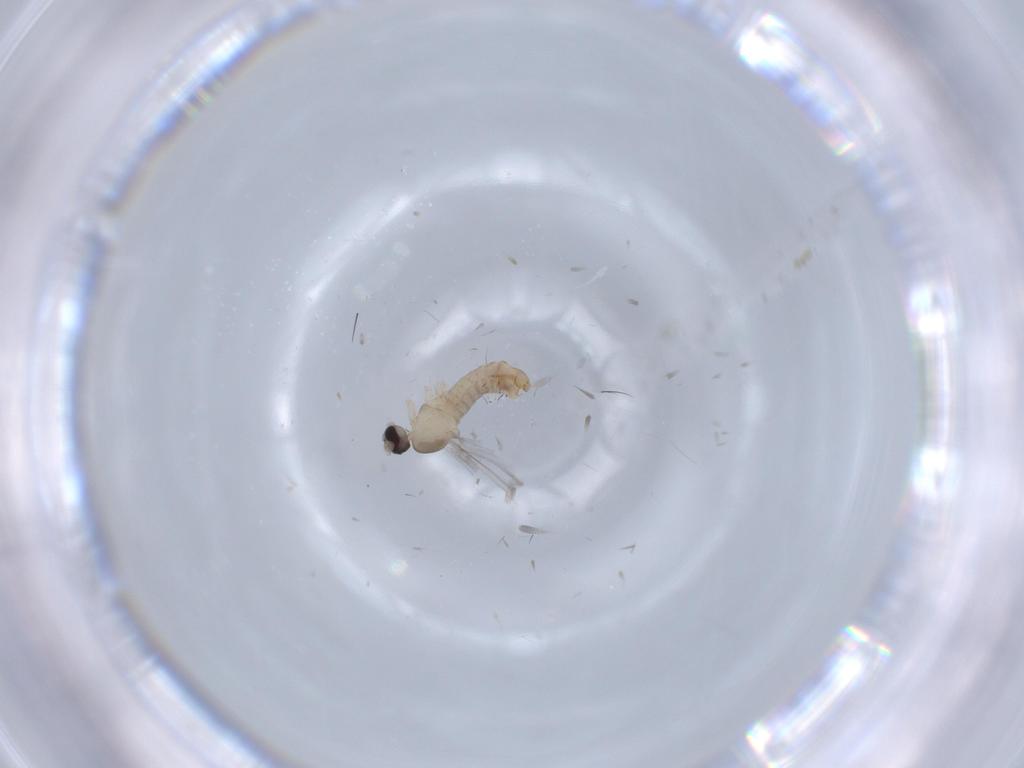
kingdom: Animalia
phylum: Arthropoda
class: Insecta
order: Diptera
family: Cecidomyiidae
